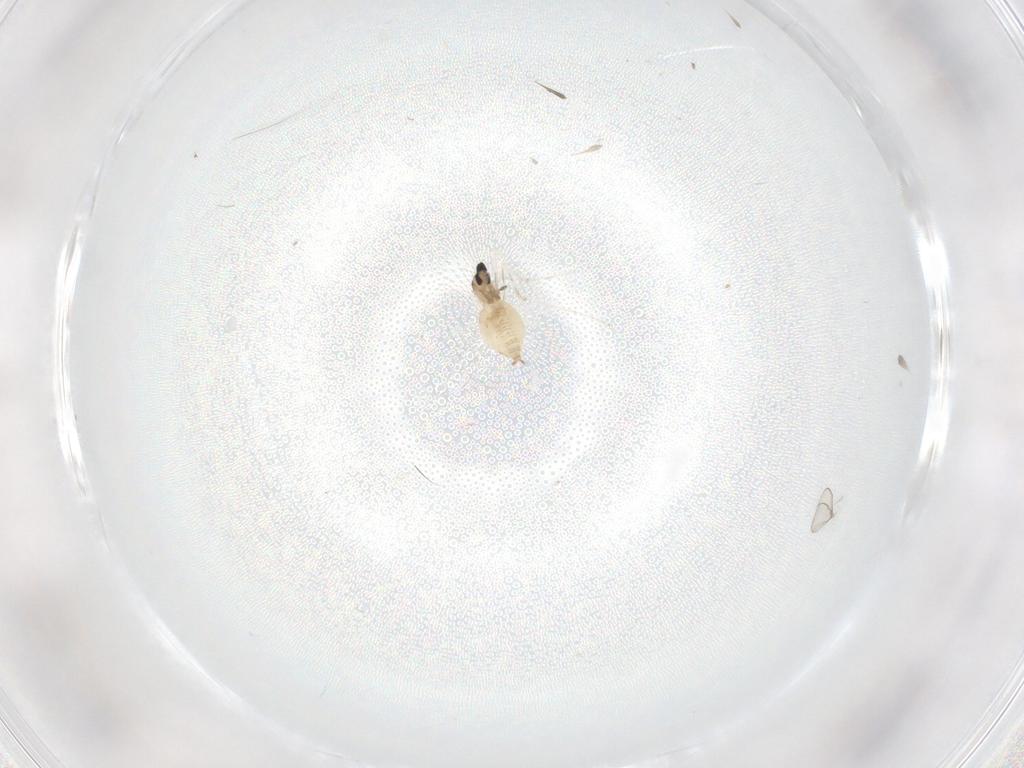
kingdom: Animalia
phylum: Arthropoda
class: Insecta
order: Diptera
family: Cecidomyiidae
